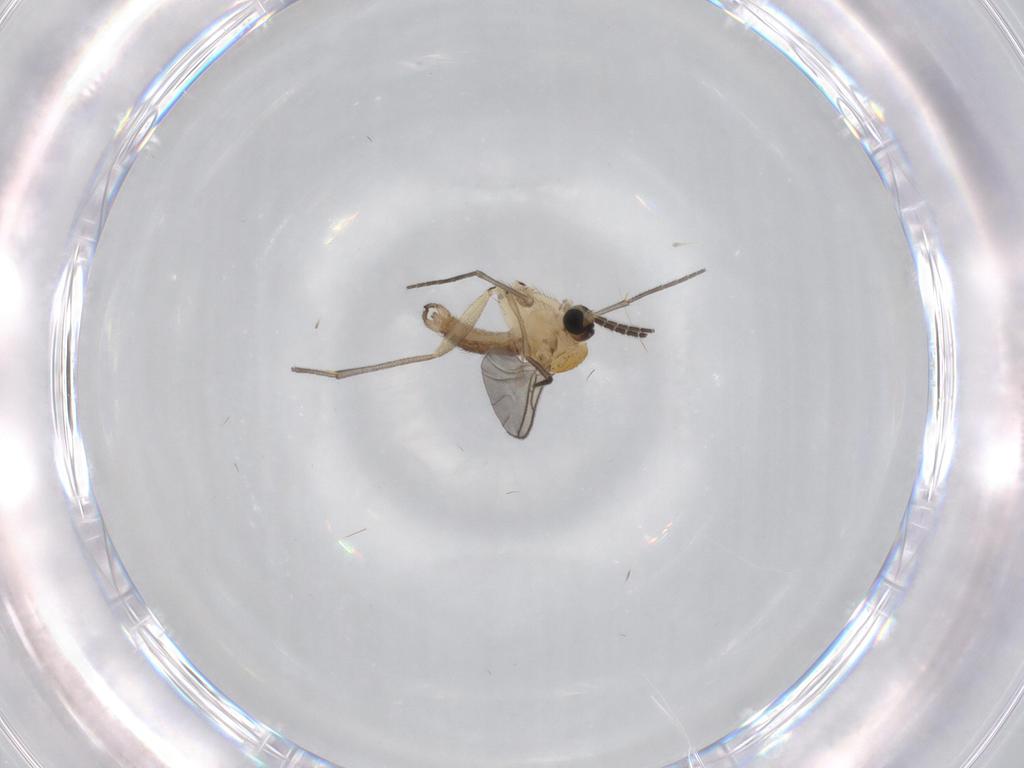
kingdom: Animalia
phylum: Arthropoda
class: Insecta
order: Diptera
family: Sciaridae
